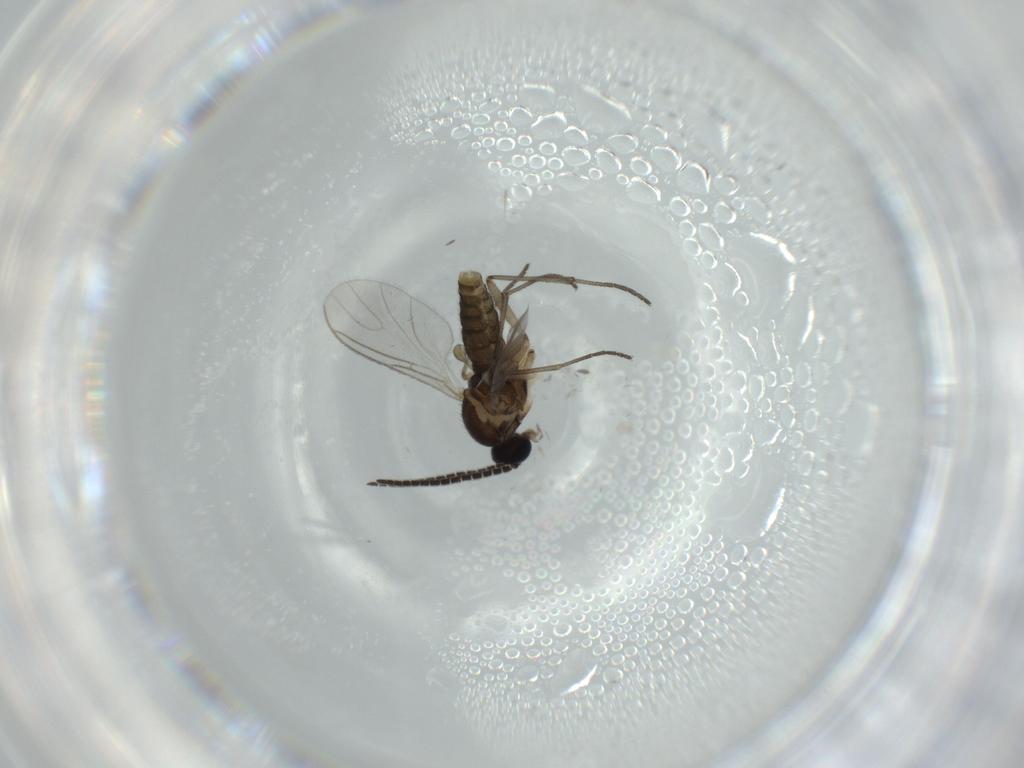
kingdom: Animalia
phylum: Arthropoda
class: Insecta
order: Diptera
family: Sciaridae
